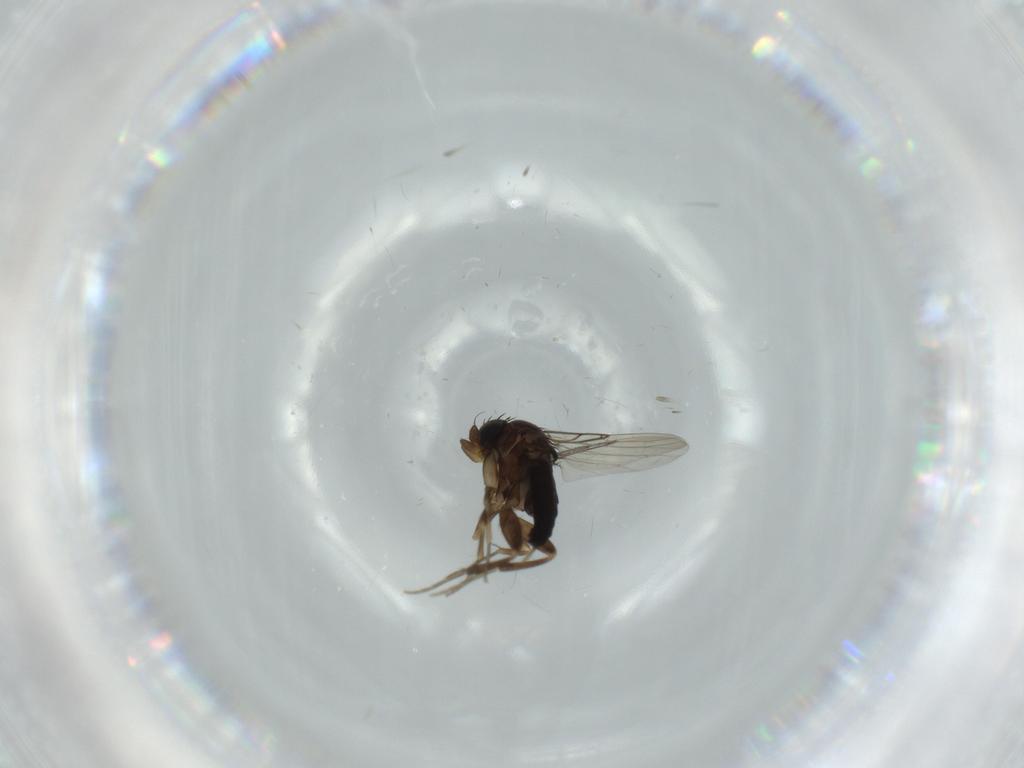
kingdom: Animalia
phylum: Arthropoda
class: Insecta
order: Diptera
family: Phoridae
